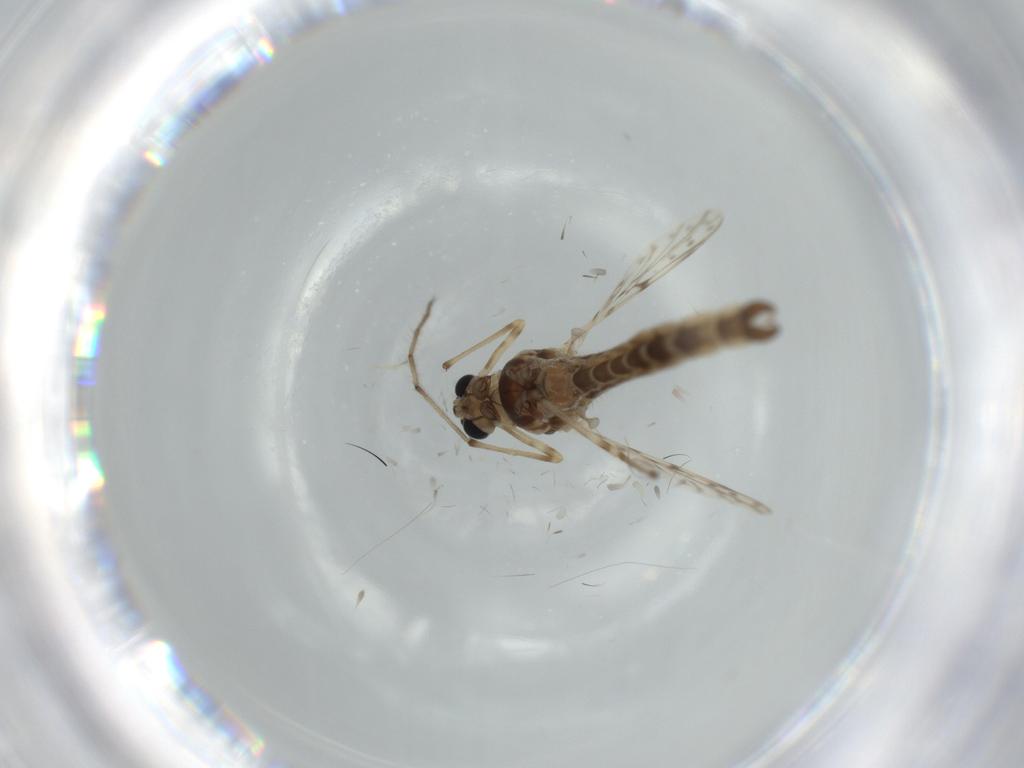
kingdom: Animalia
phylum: Arthropoda
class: Insecta
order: Diptera
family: Chironomidae
